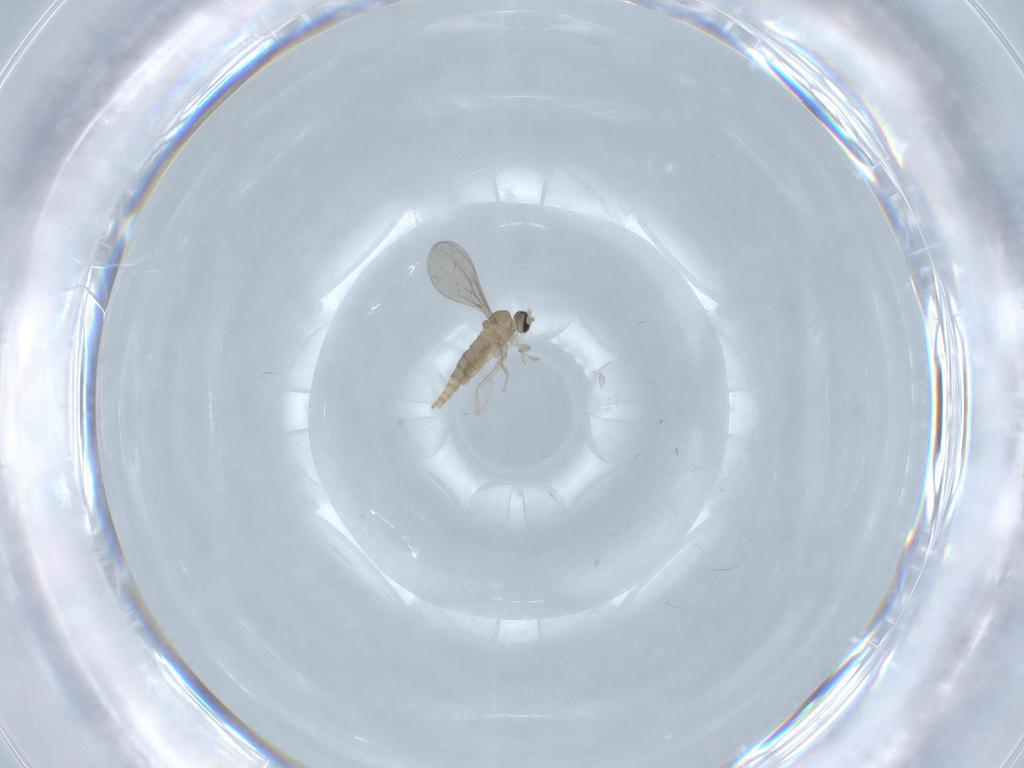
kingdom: Animalia
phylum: Arthropoda
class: Insecta
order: Diptera
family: Cecidomyiidae
